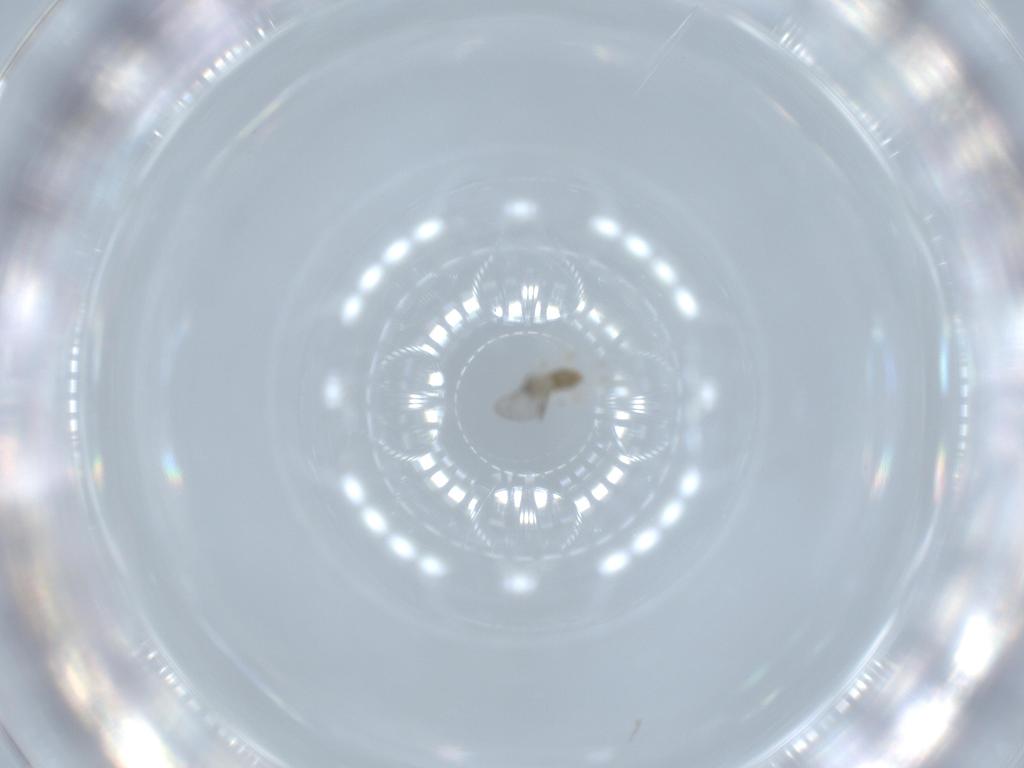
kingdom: Animalia
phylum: Arthropoda
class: Insecta
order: Diptera
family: Cecidomyiidae
